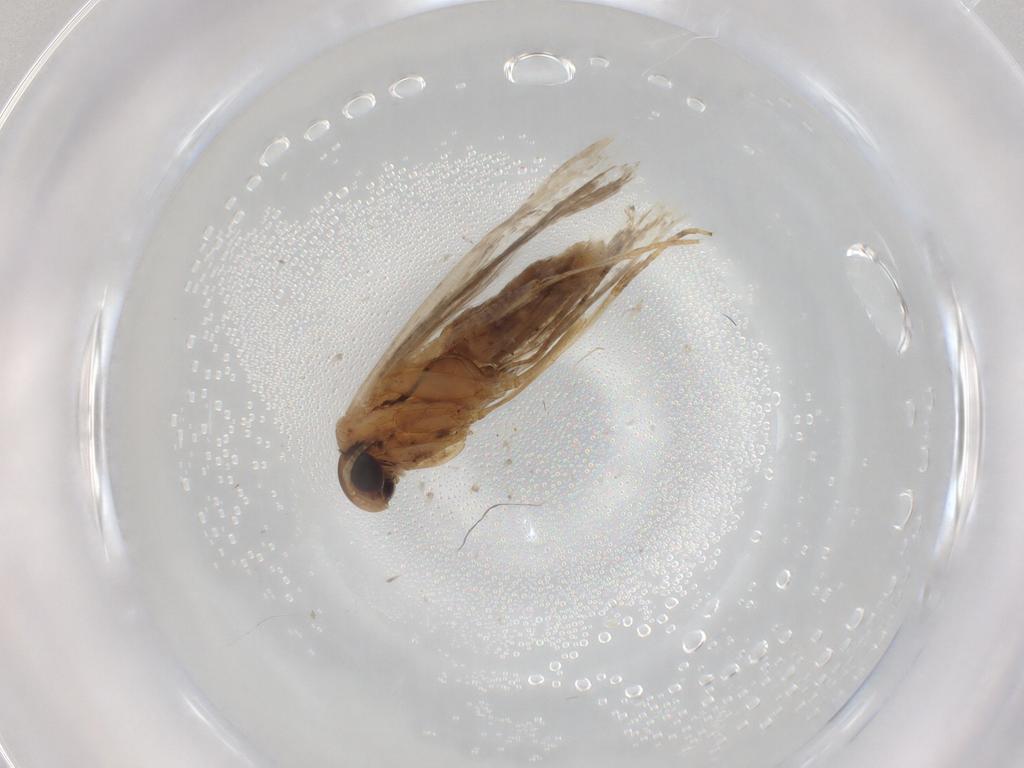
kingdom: Animalia
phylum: Arthropoda
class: Insecta
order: Lepidoptera
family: Gelechiidae
